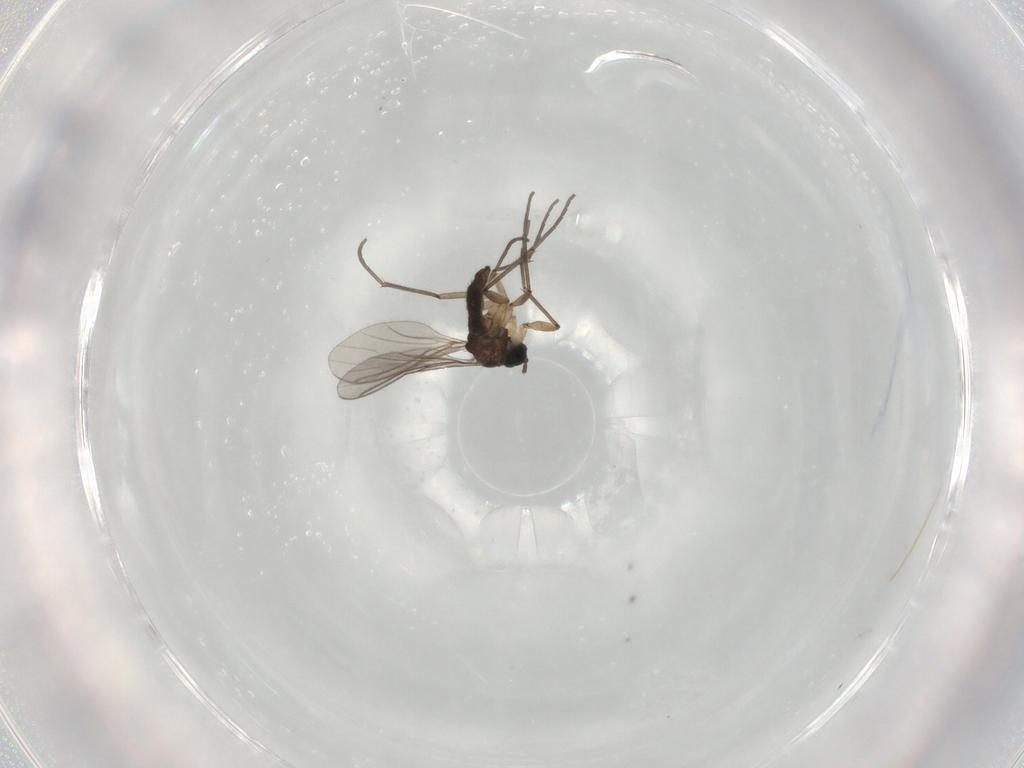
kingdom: Animalia
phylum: Arthropoda
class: Insecta
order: Diptera
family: Sciaridae
